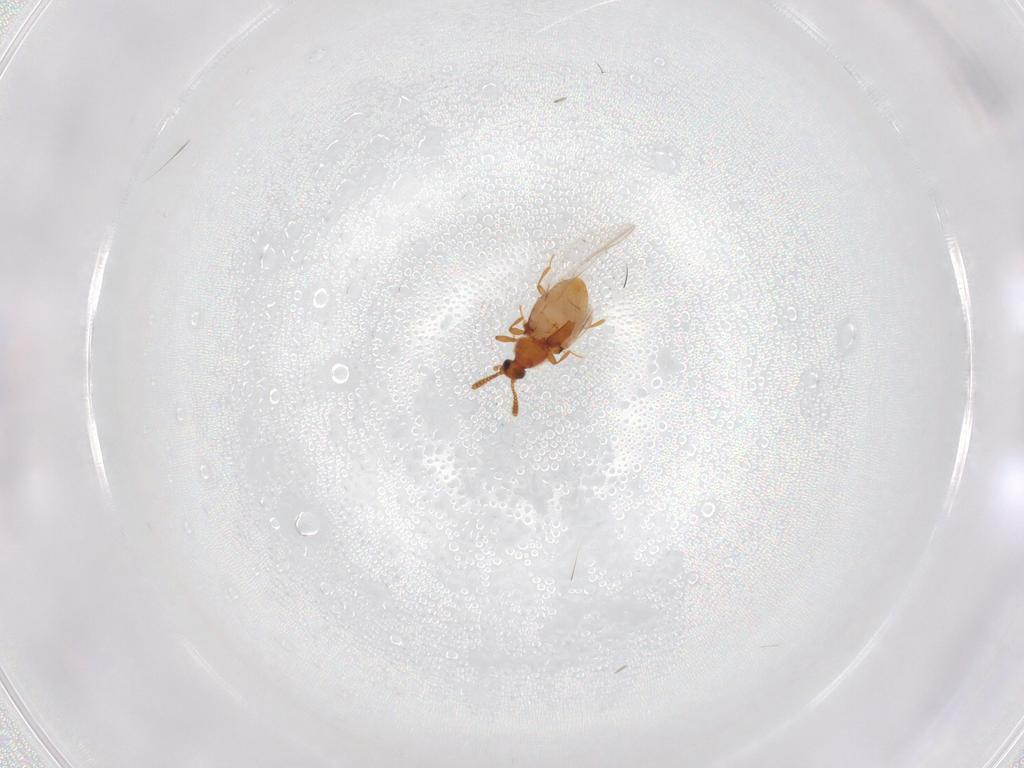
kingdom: Animalia
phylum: Arthropoda
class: Insecta
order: Coleoptera
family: Staphylinidae
